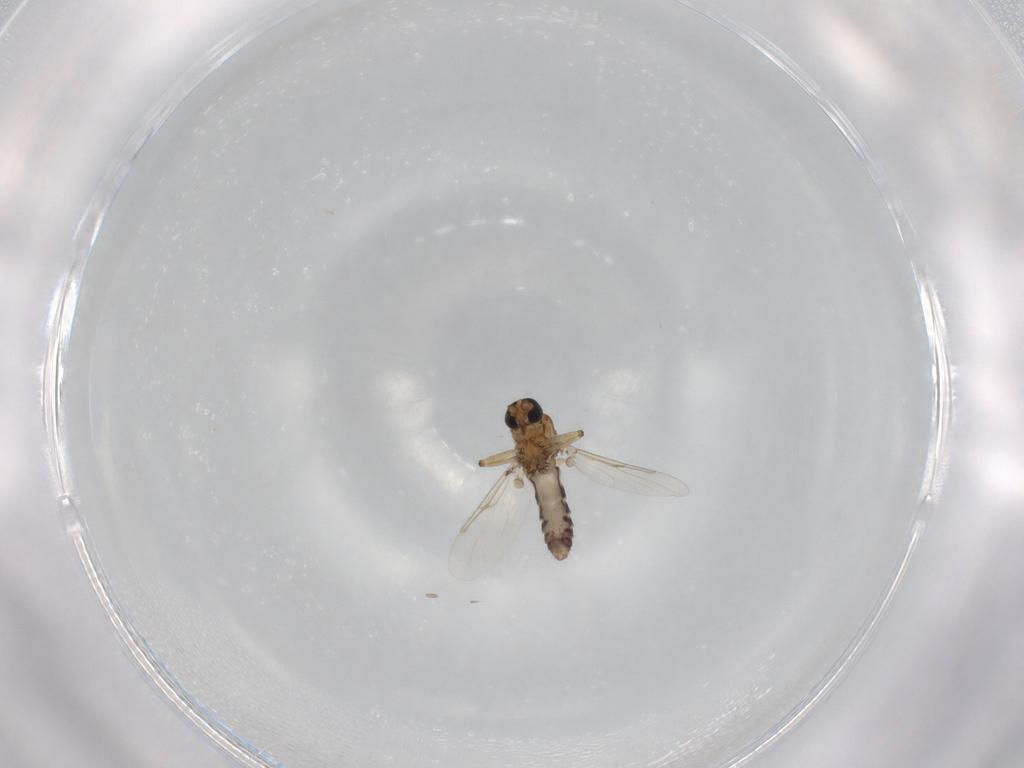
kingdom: Animalia
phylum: Arthropoda
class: Insecta
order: Diptera
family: Ceratopogonidae
